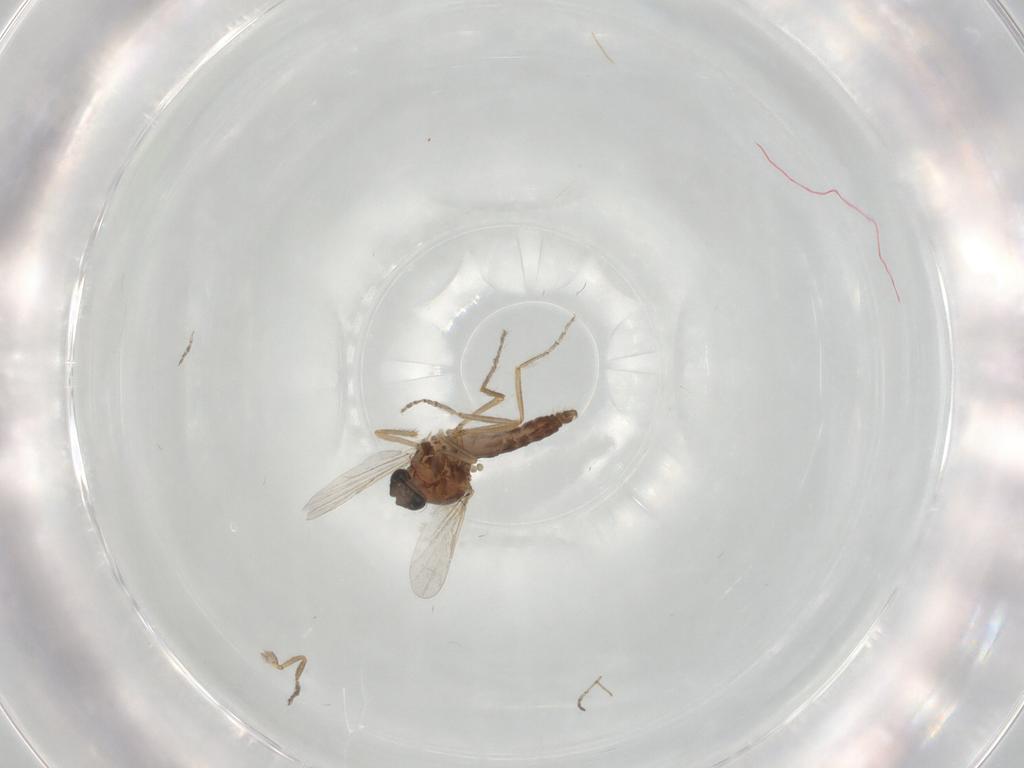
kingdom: Animalia
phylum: Arthropoda
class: Insecta
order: Diptera
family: Ceratopogonidae
